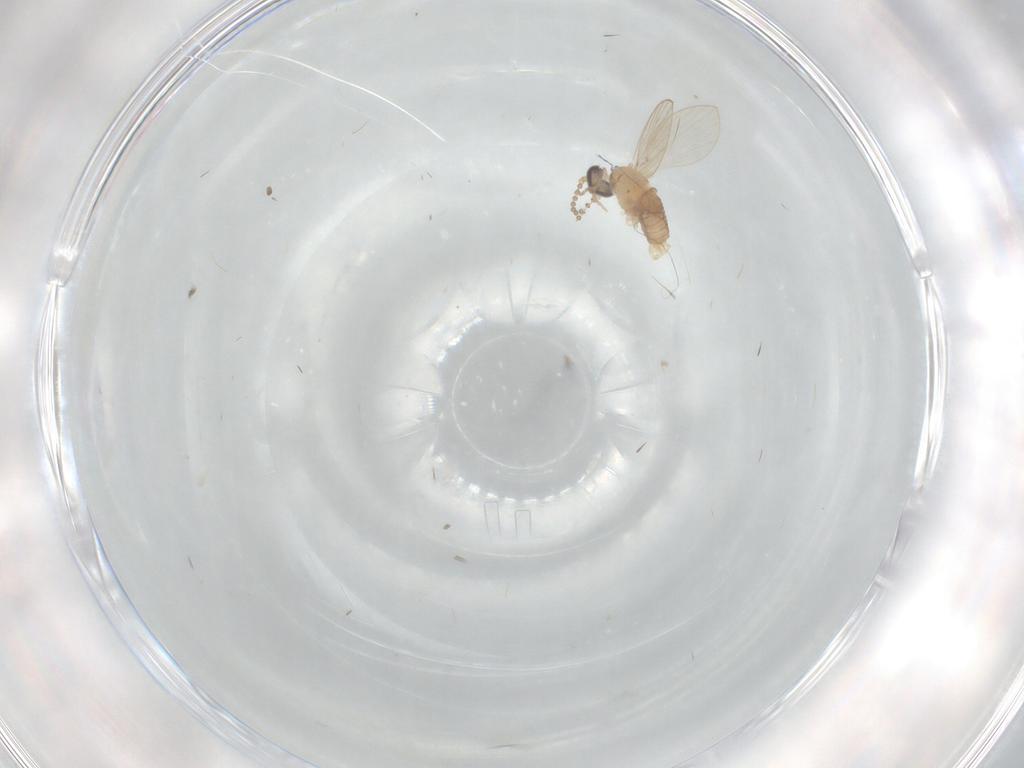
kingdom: Animalia
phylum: Arthropoda
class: Insecta
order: Diptera
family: Psychodidae
